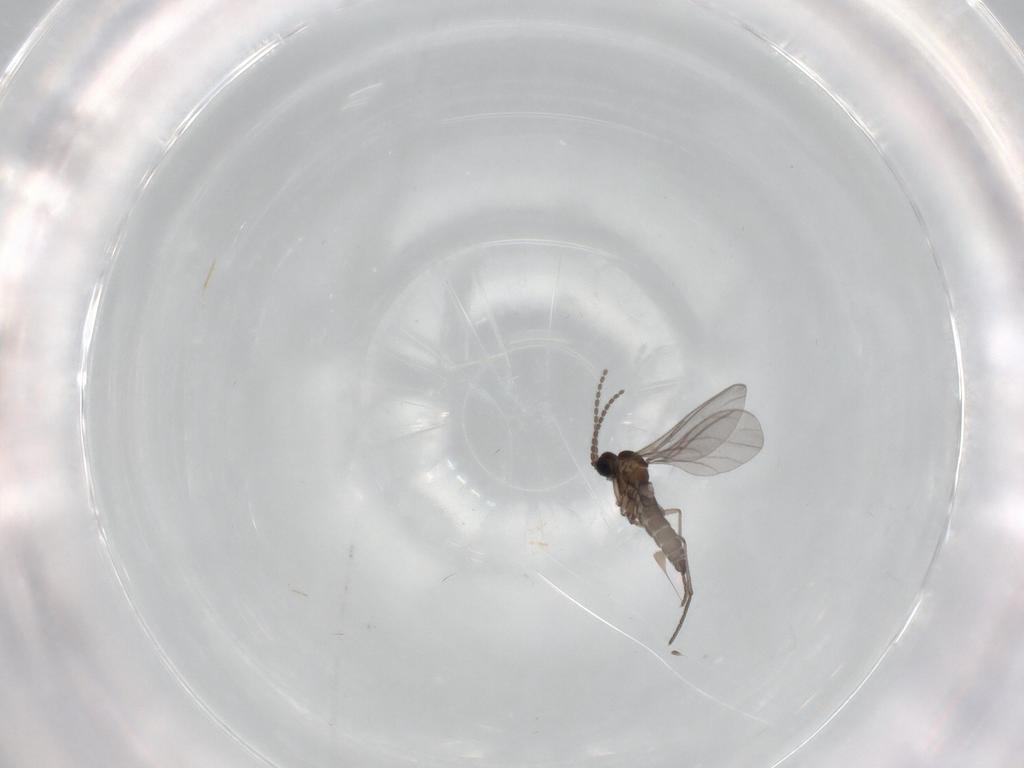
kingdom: Animalia
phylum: Arthropoda
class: Insecta
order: Diptera
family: Sciaridae
